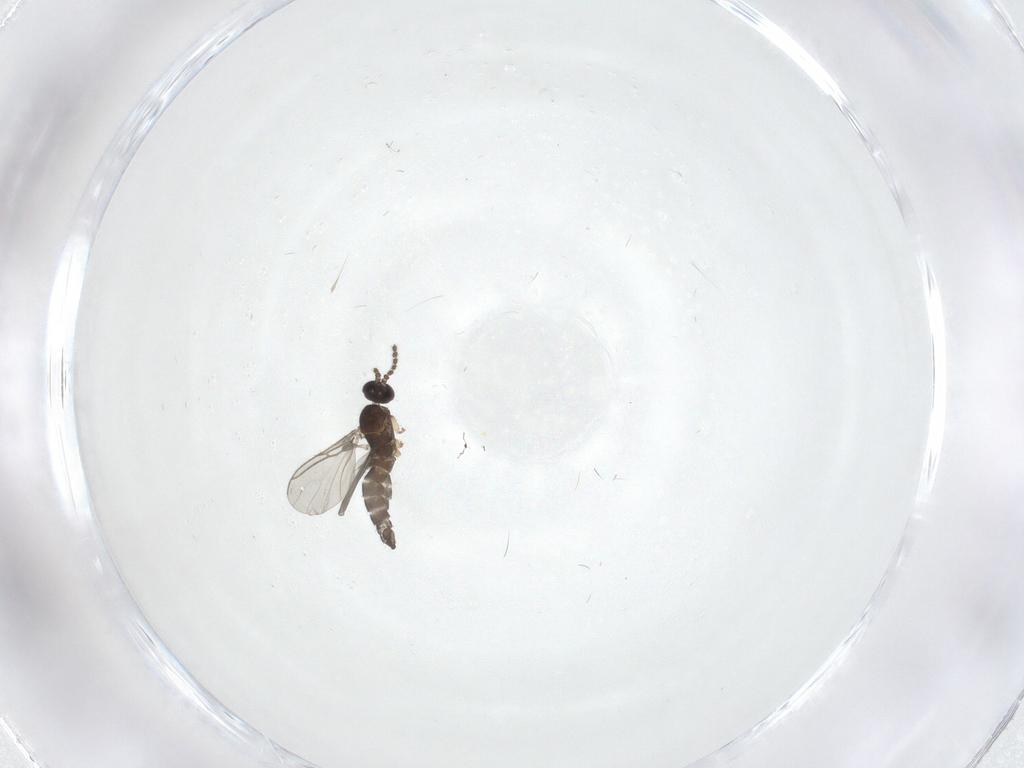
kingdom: Animalia
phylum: Arthropoda
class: Insecta
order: Diptera
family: Sciaridae
